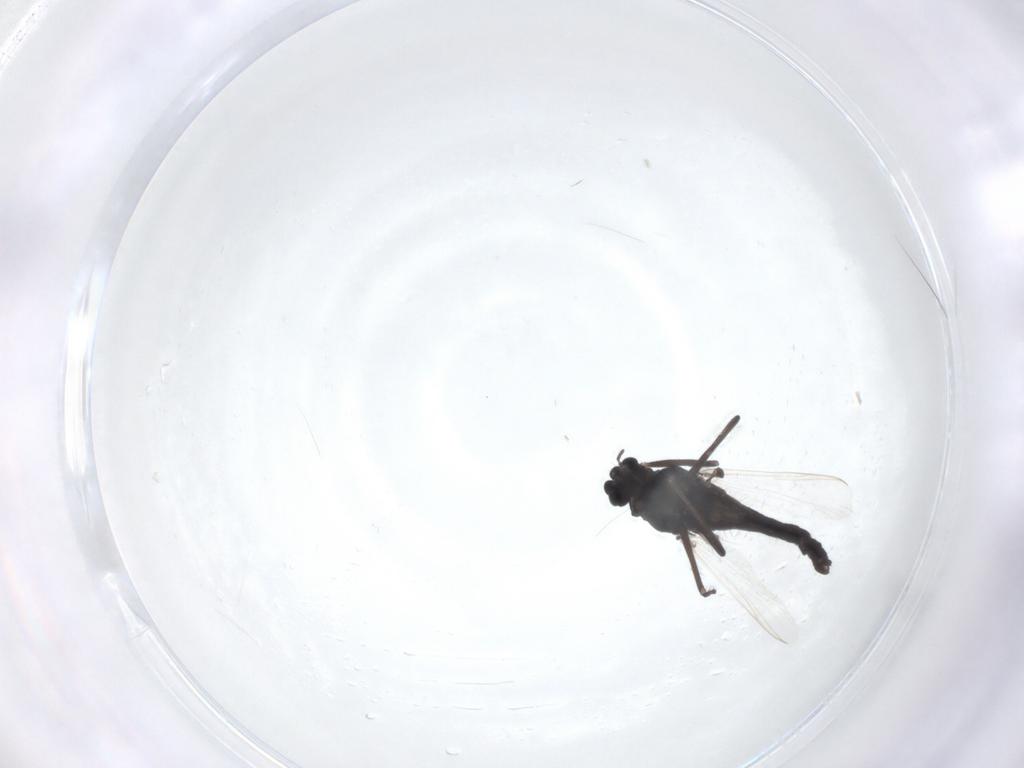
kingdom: Animalia
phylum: Arthropoda
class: Insecta
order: Diptera
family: Chironomidae
